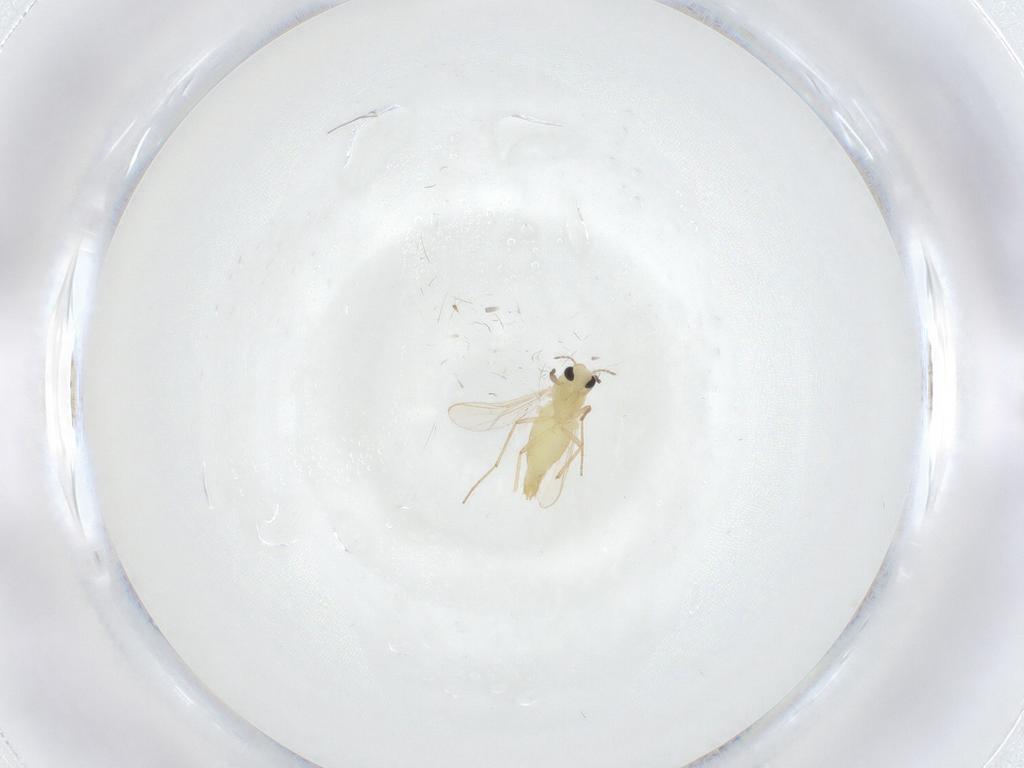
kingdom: Animalia
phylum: Arthropoda
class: Insecta
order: Diptera
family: Chironomidae
